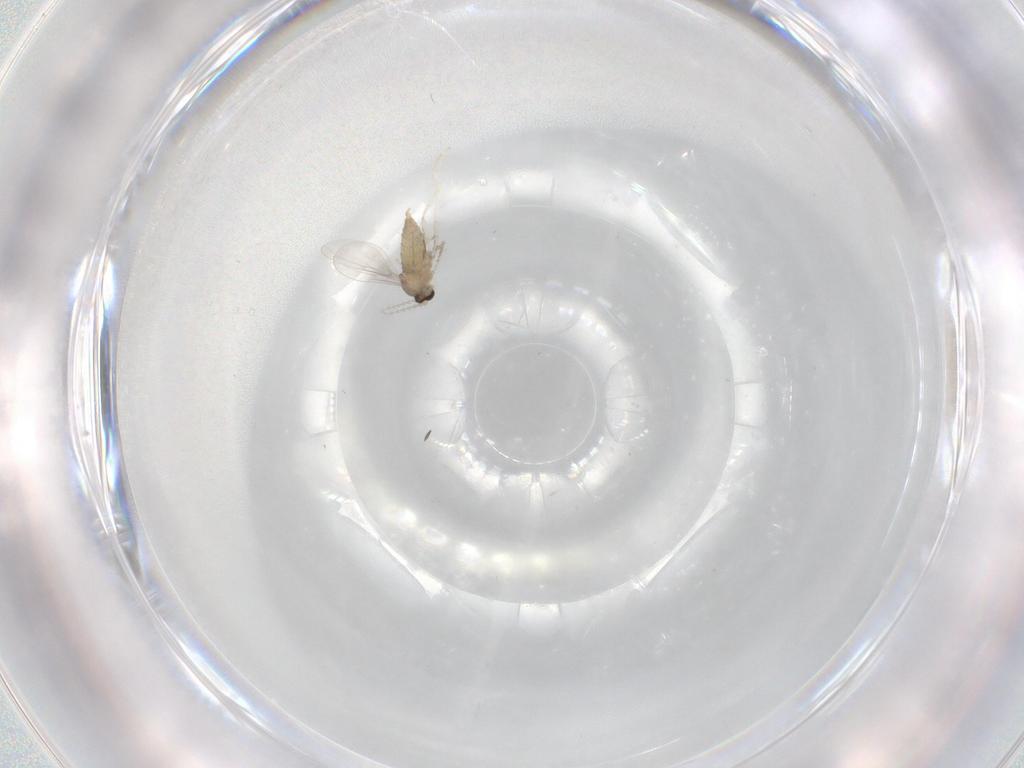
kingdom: Animalia
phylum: Arthropoda
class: Insecta
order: Diptera
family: Cecidomyiidae
